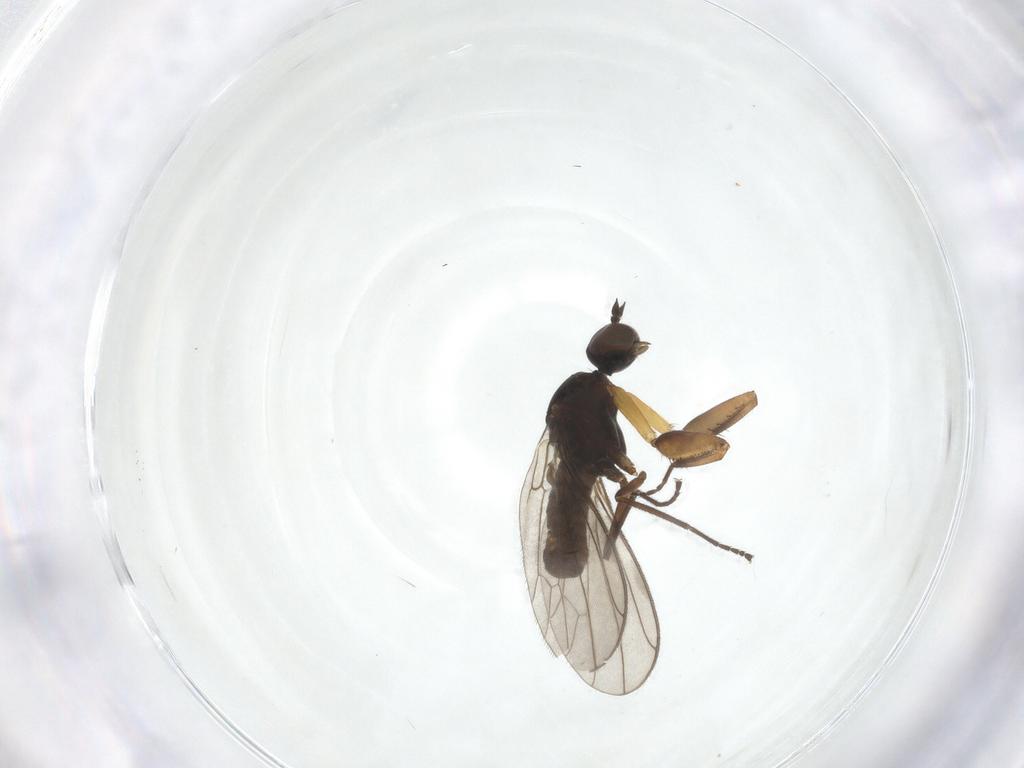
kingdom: Animalia
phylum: Arthropoda
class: Insecta
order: Diptera
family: Empididae
